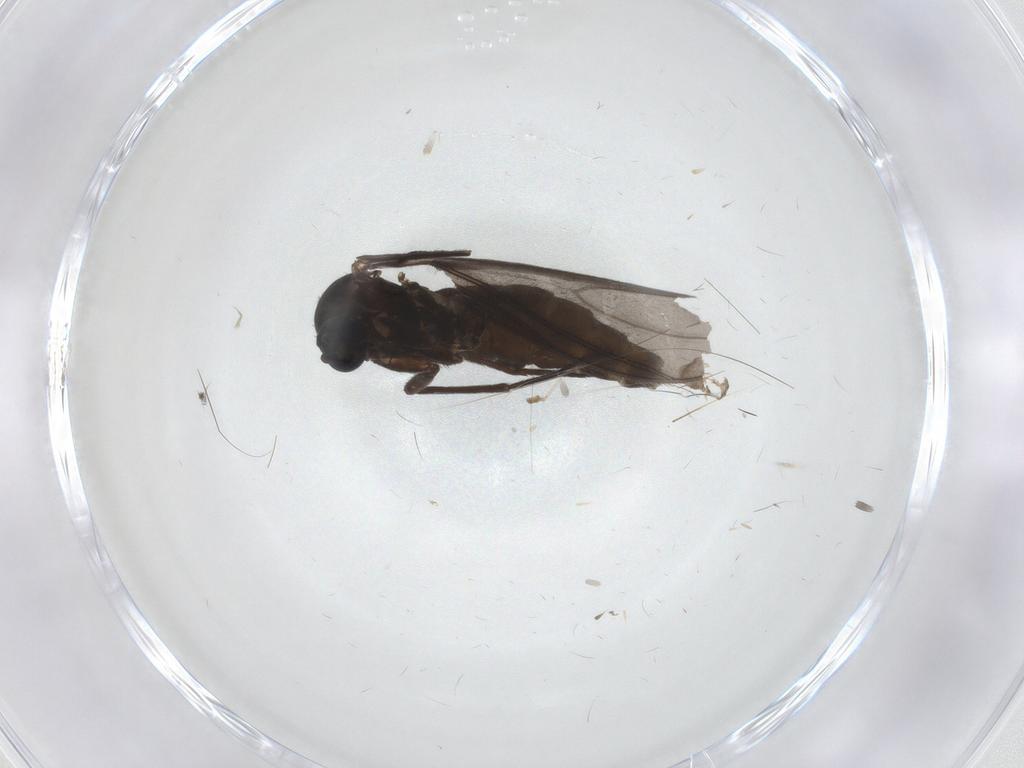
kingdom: Animalia
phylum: Arthropoda
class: Insecta
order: Diptera
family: Sciaridae
